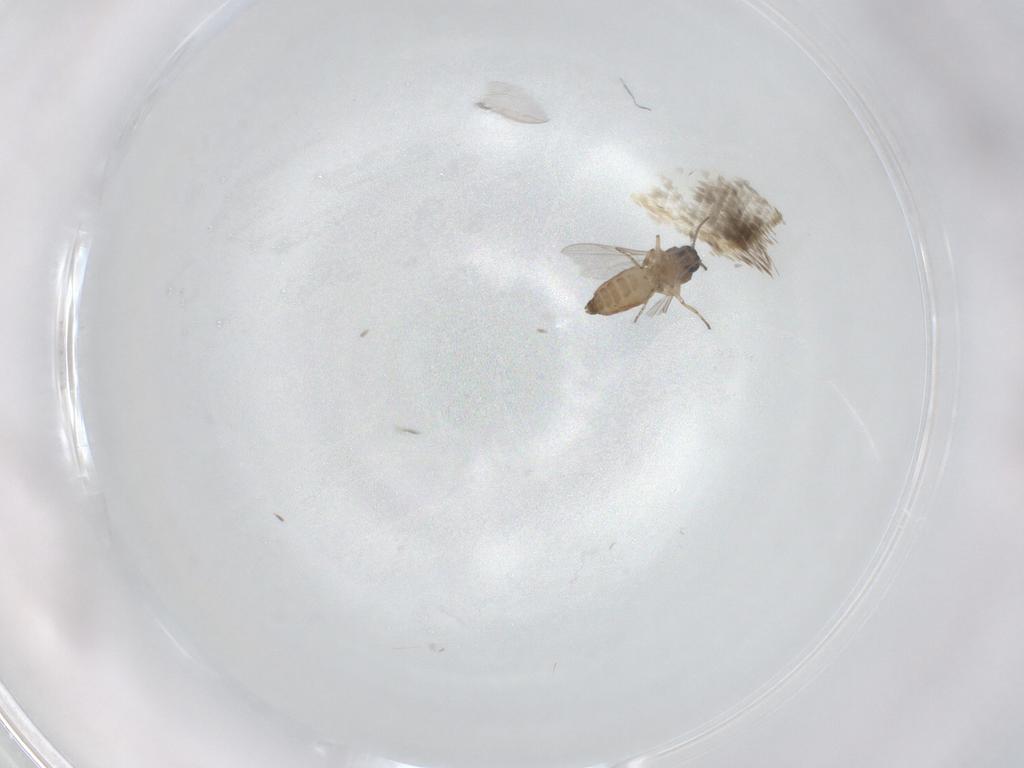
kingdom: Animalia
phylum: Arthropoda
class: Insecta
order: Diptera
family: Ceratopogonidae
